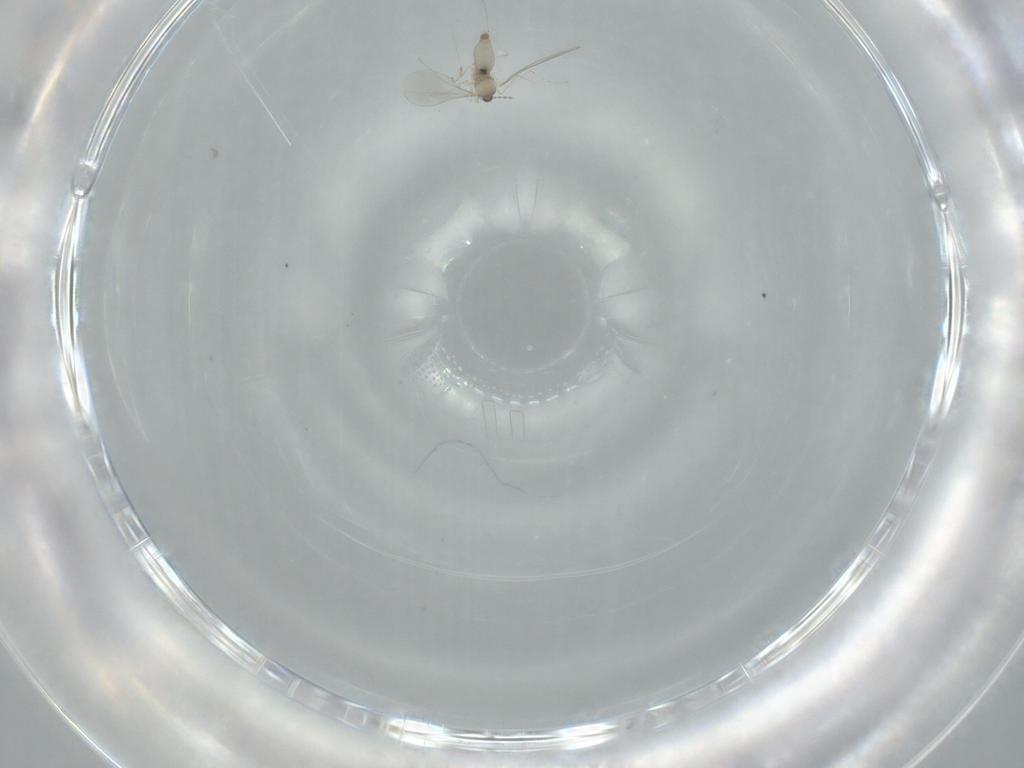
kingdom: Animalia
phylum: Arthropoda
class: Insecta
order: Diptera
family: Psychodidae
